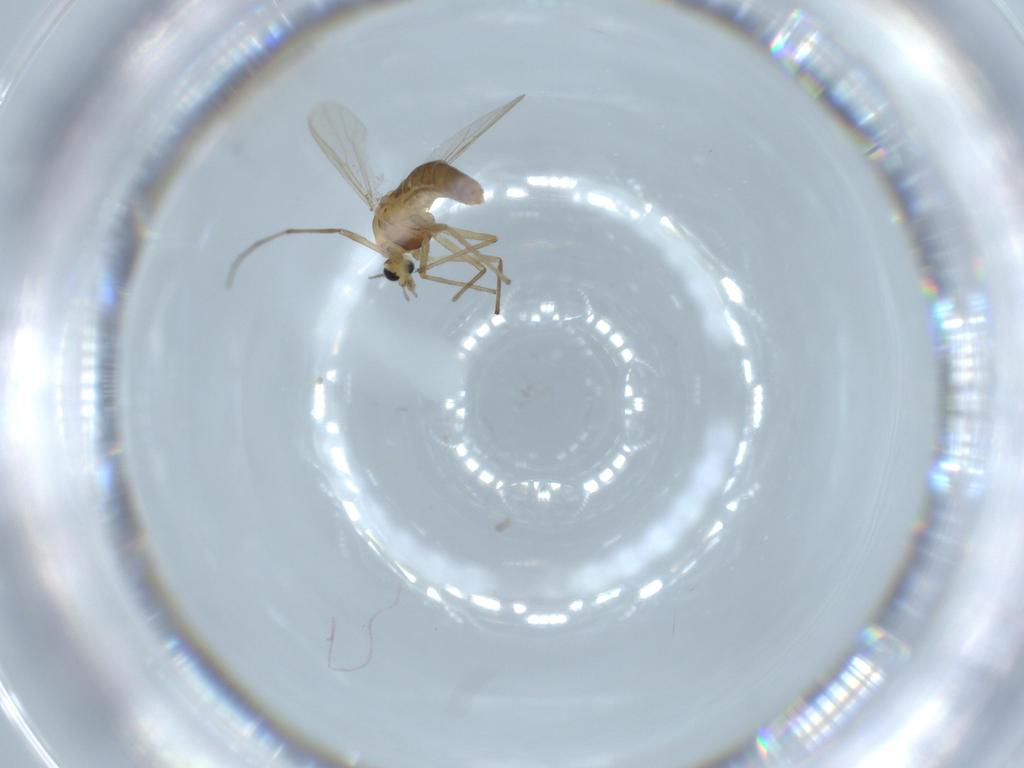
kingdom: Animalia
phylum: Arthropoda
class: Insecta
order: Diptera
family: Chironomidae
